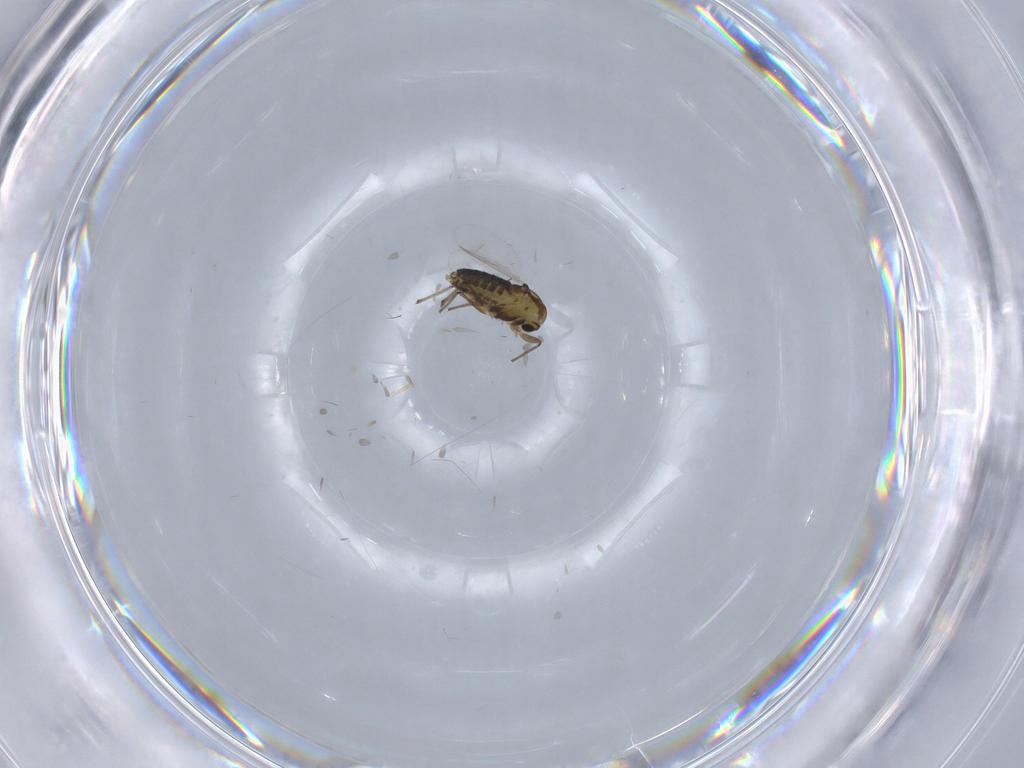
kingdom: Animalia
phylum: Arthropoda
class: Insecta
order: Diptera
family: Chironomidae
